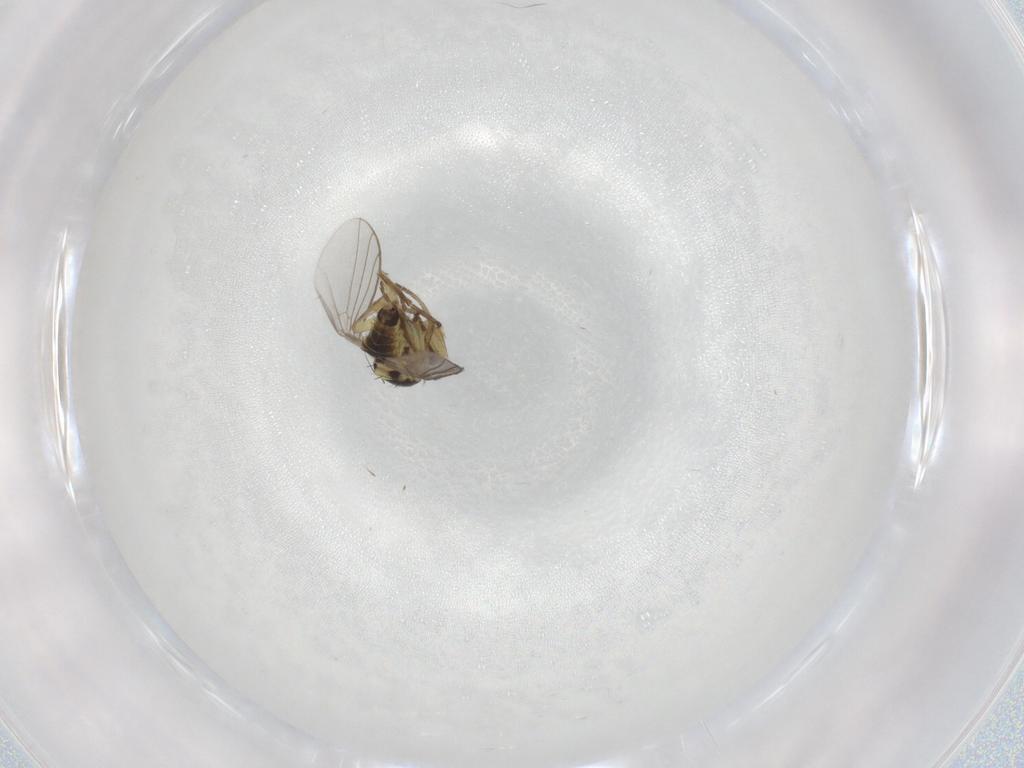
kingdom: Animalia
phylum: Arthropoda
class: Insecta
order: Diptera
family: Agromyzidae
